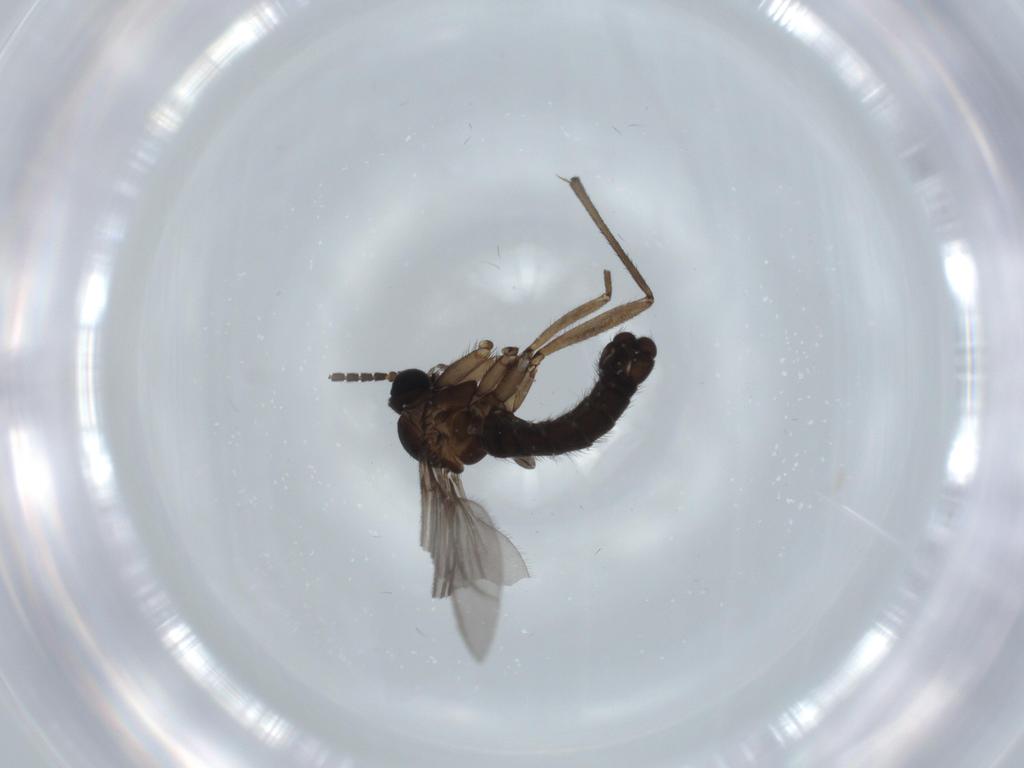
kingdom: Animalia
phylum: Arthropoda
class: Insecta
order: Diptera
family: Sciaridae
